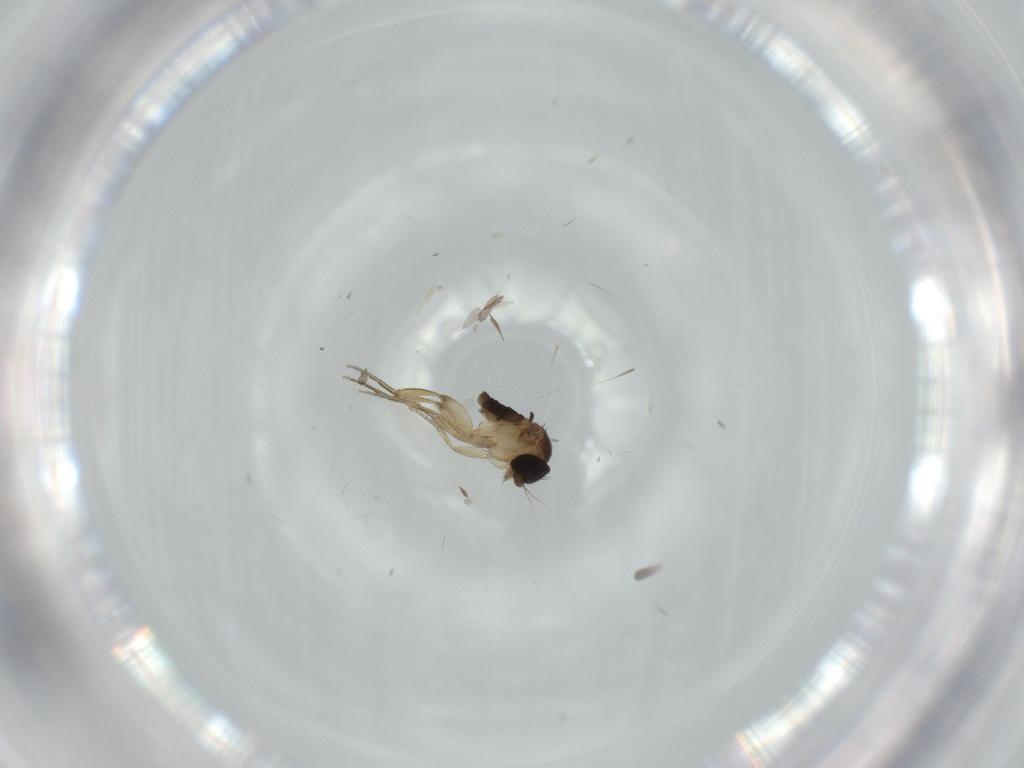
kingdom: Animalia
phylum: Arthropoda
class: Insecta
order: Diptera
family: Phoridae
